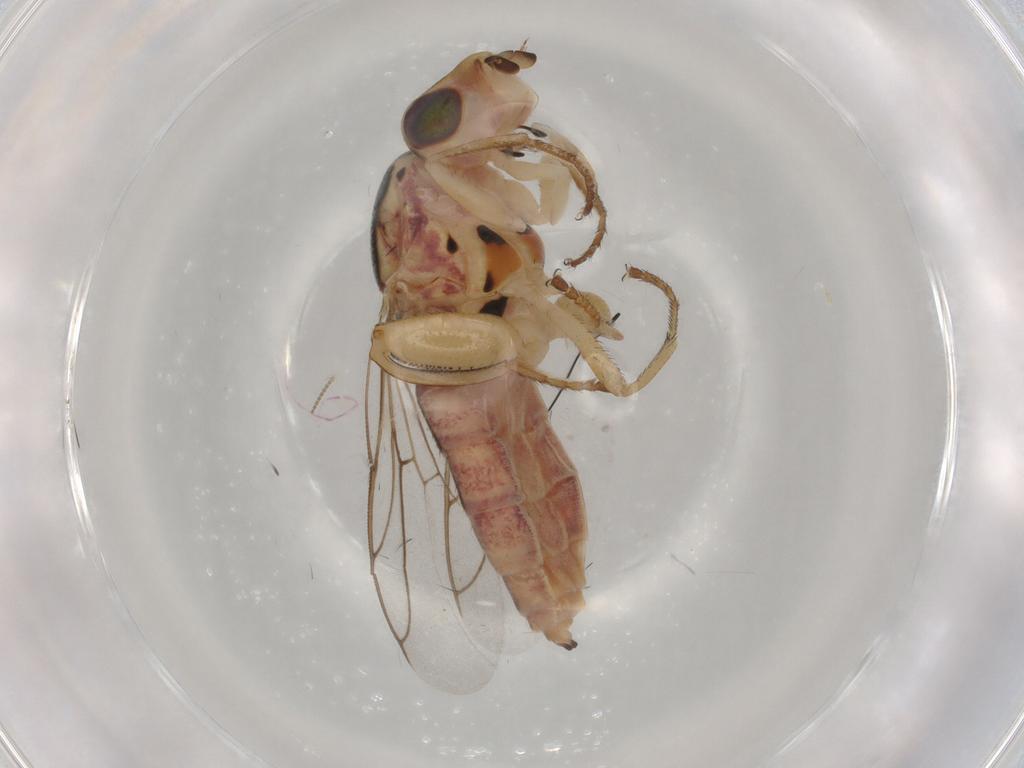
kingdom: Animalia
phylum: Arthropoda
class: Insecta
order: Diptera
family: Chloropidae
